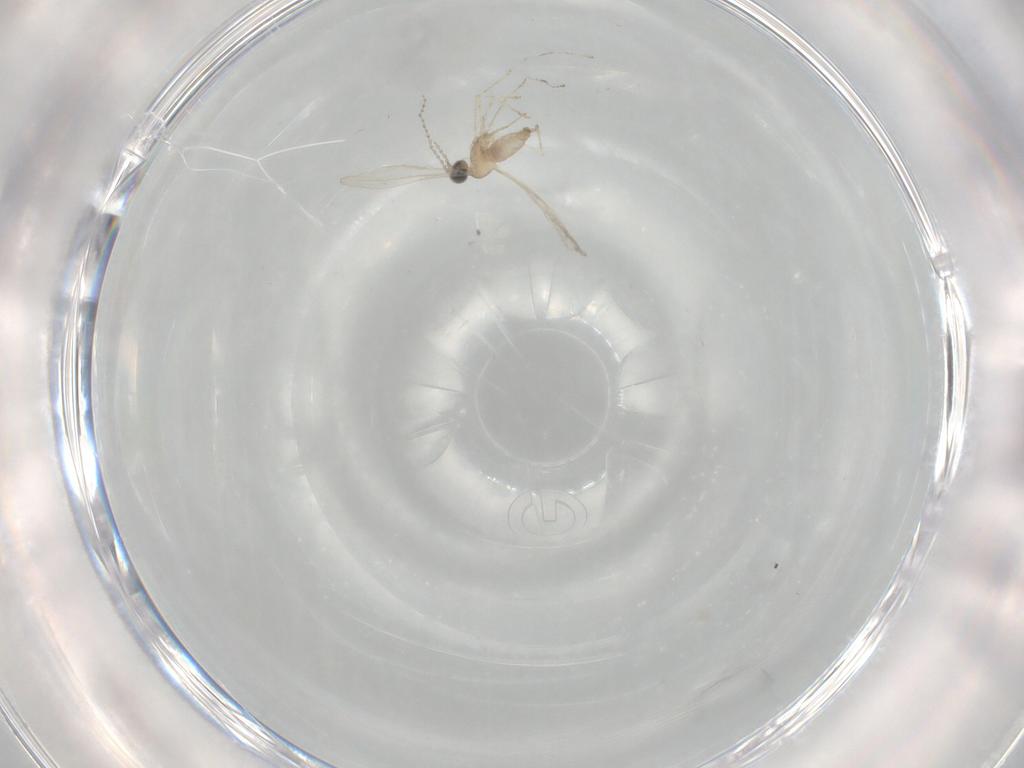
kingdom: Animalia
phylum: Arthropoda
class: Insecta
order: Diptera
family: Cecidomyiidae
